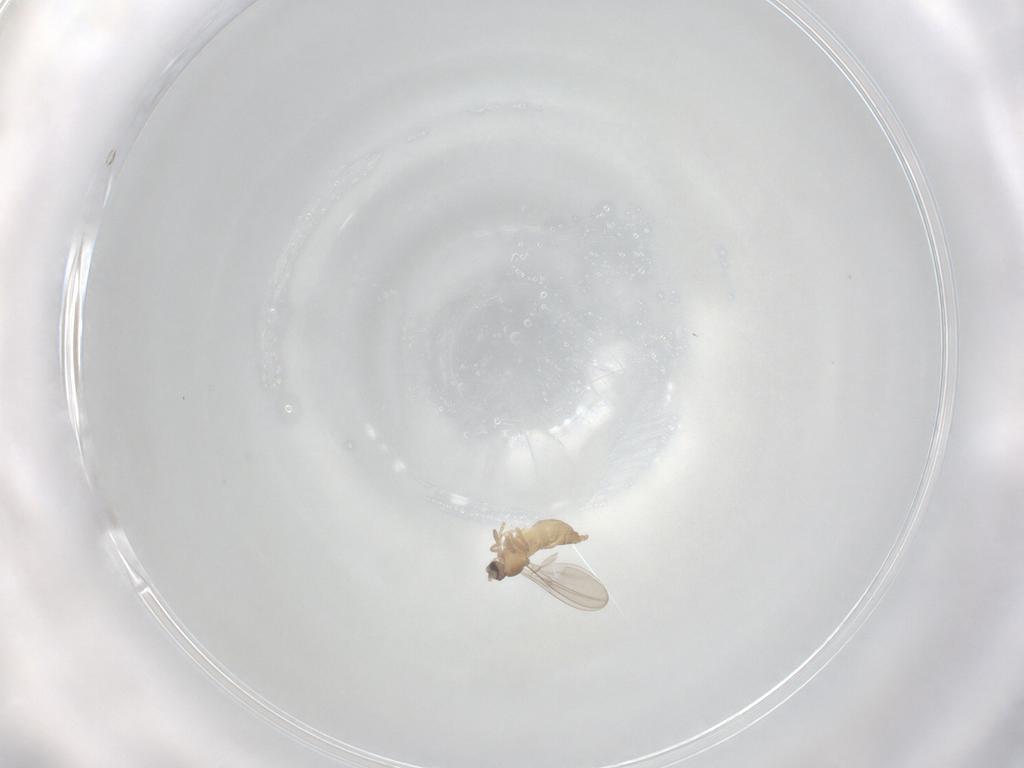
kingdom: Animalia
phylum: Arthropoda
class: Insecta
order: Diptera
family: Cecidomyiidae
